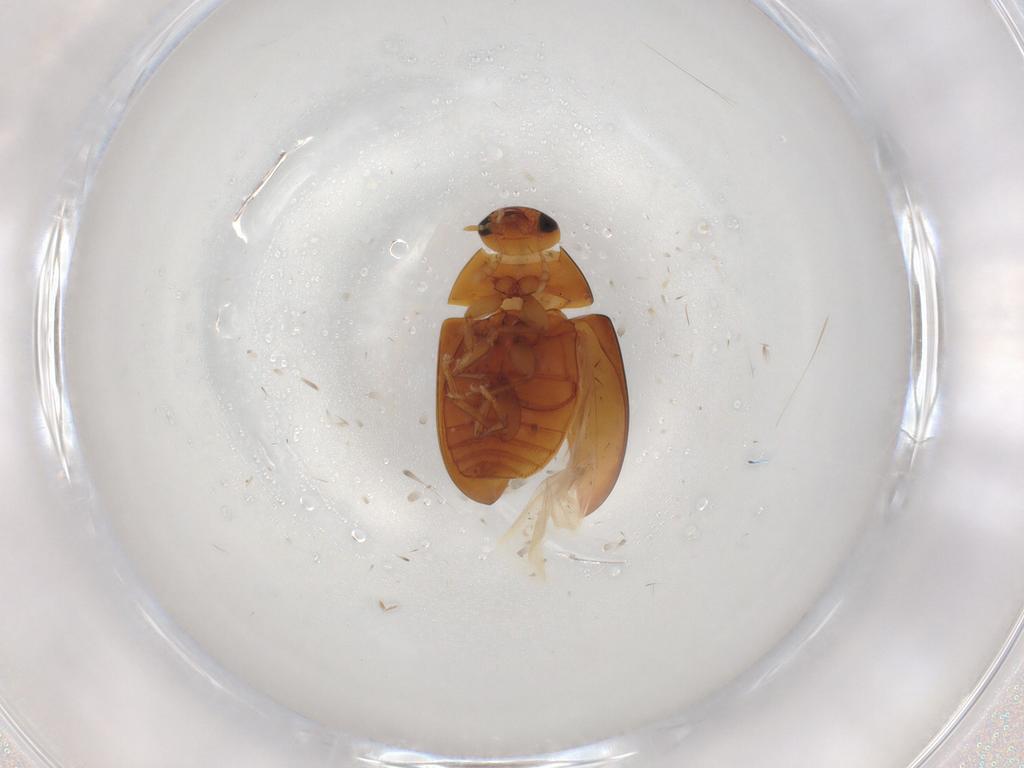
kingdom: Animalia
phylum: Arthropoda
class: Insecta
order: Coleoptera
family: Phalacridae
